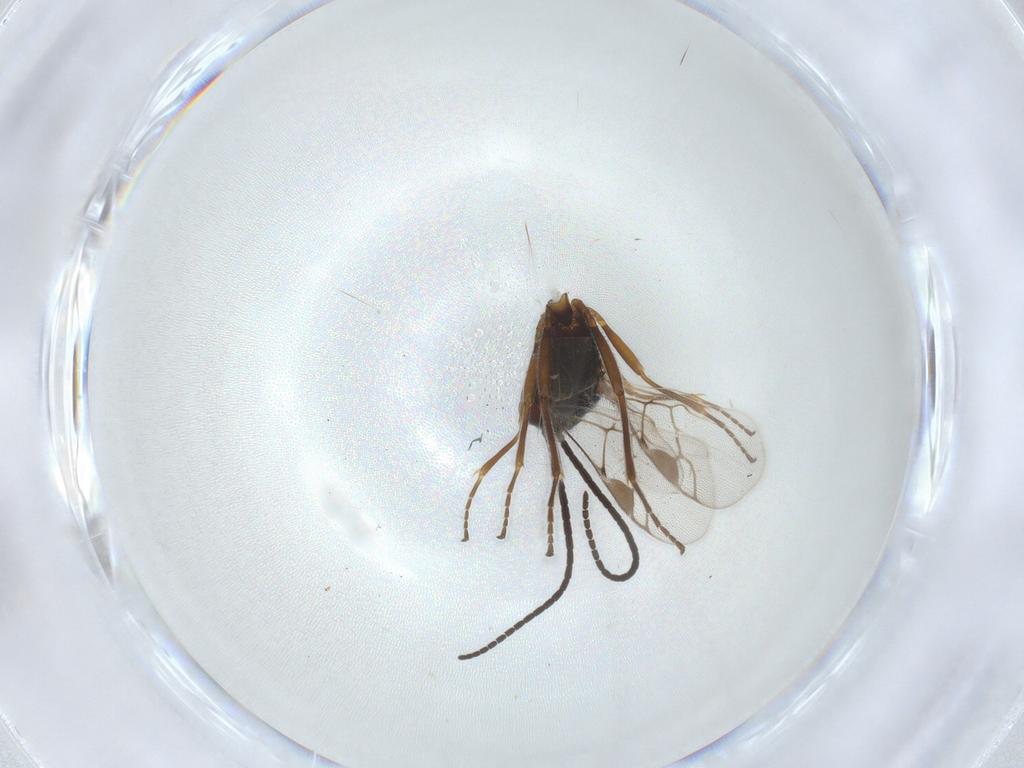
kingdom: Animalia
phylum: Arthropoda
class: Insecta
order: Hymenoptera
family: Braconidae
